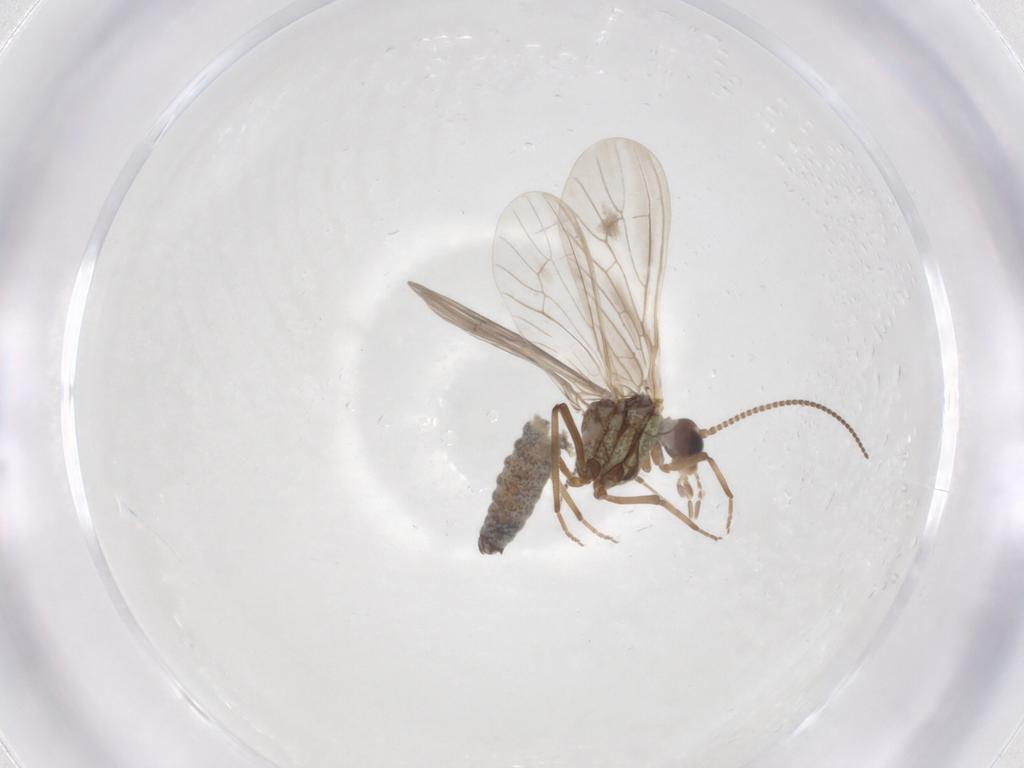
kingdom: Animalia
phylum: Arthropoda
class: Insecta
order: Neuroptera
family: Coniopterygidae
